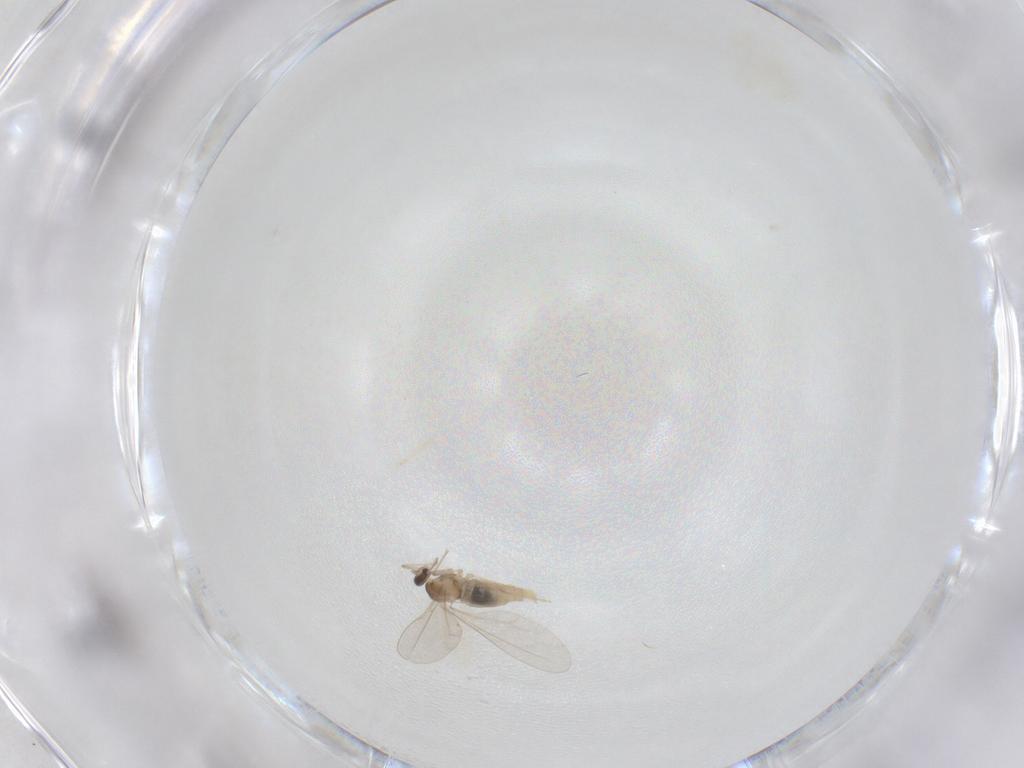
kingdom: Animalia
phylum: Arthropoda
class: Insecta
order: Diptera
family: Cecidomyiidae
